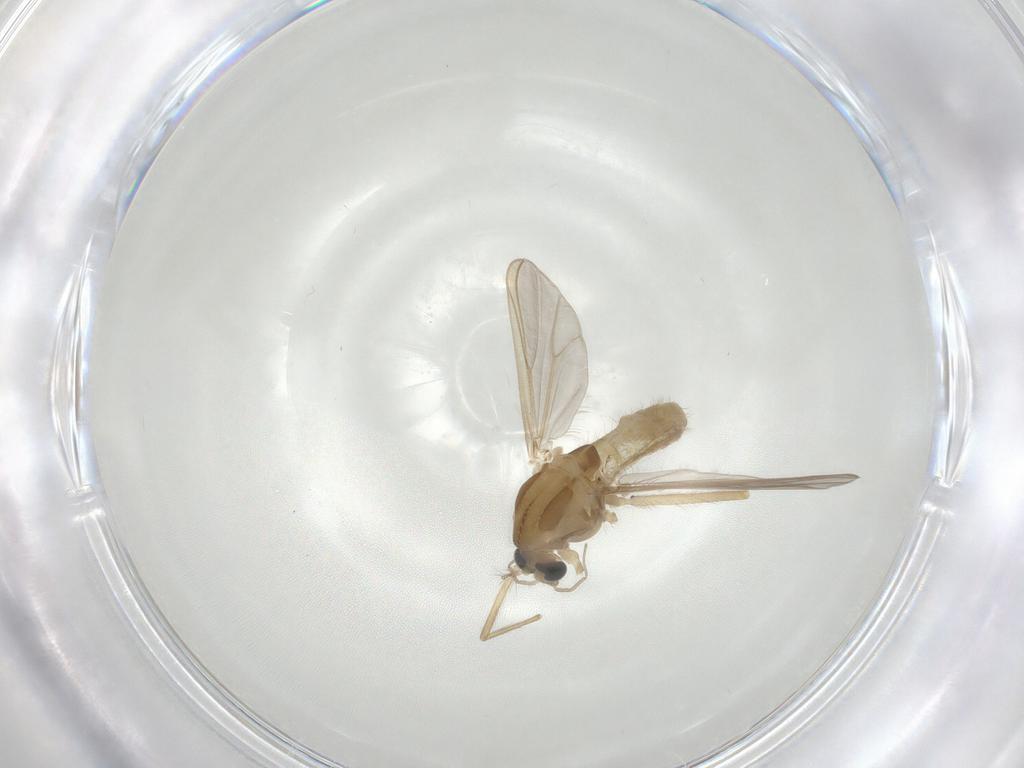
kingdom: Animalia
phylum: Arthropoda
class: Insecta
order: Diptera
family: Chironomidae
